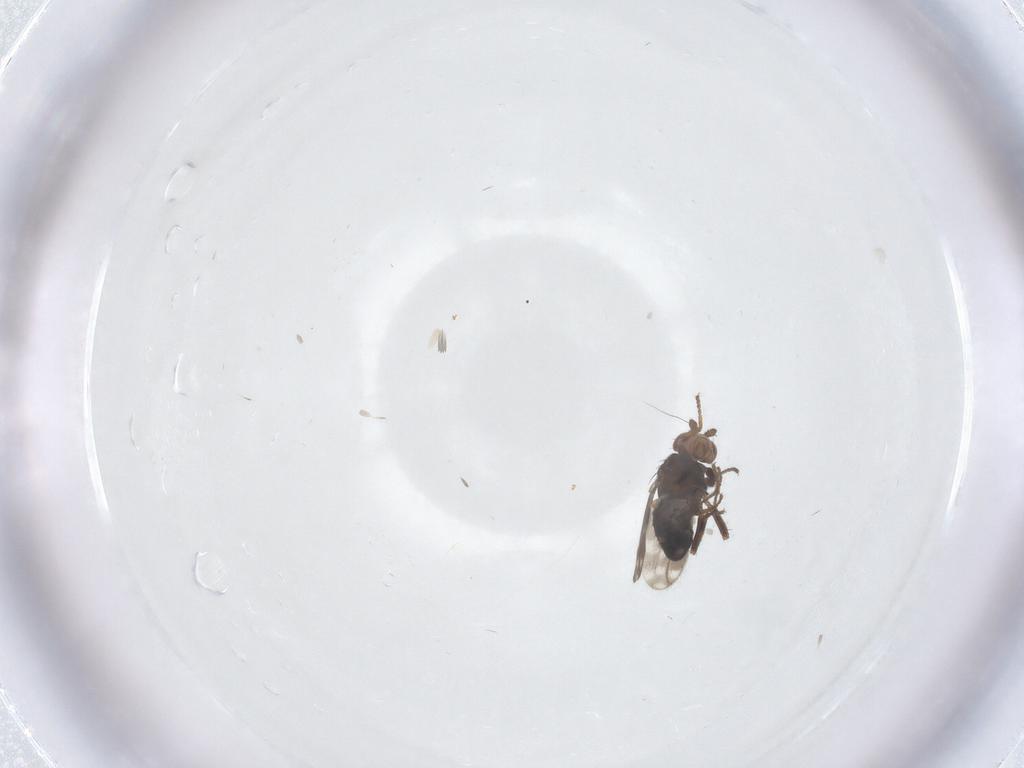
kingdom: Animalia
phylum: Arthropoda
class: Insecta
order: Diptera
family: Sphaeroceridae
